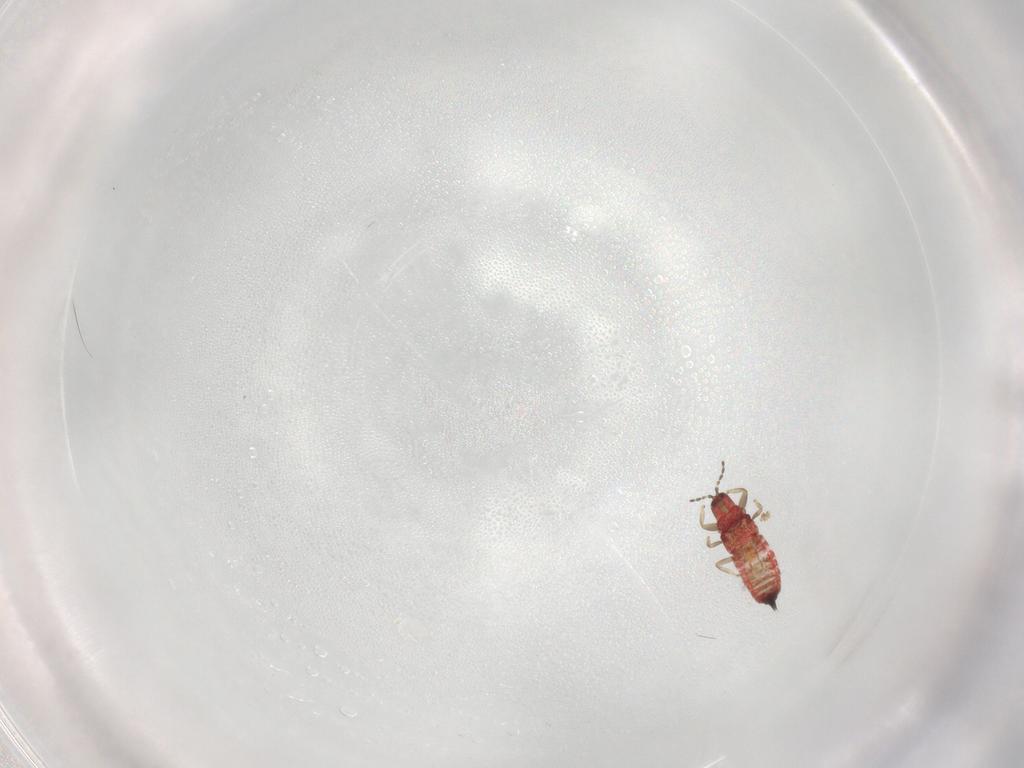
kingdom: Animalia
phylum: Arthropoda
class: Insecta
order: Thysanoptera
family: Phlaeothripidae
